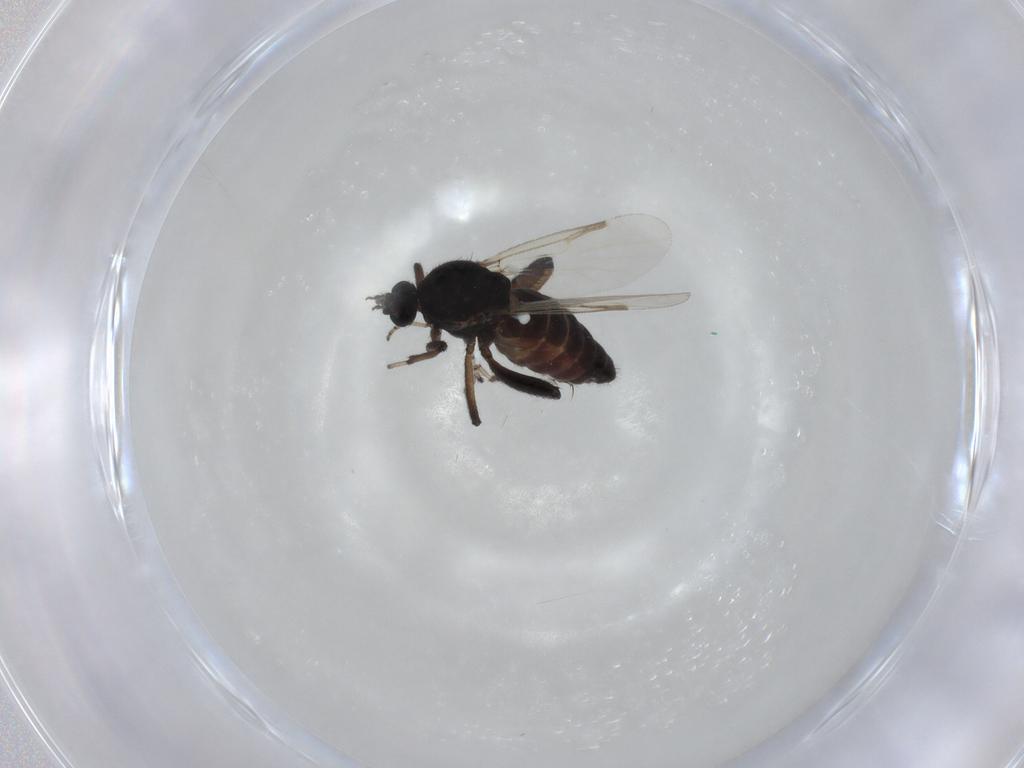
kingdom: Animalia
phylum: Arthropoda
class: Insecta
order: Diptera
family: Ceratopogonidae
